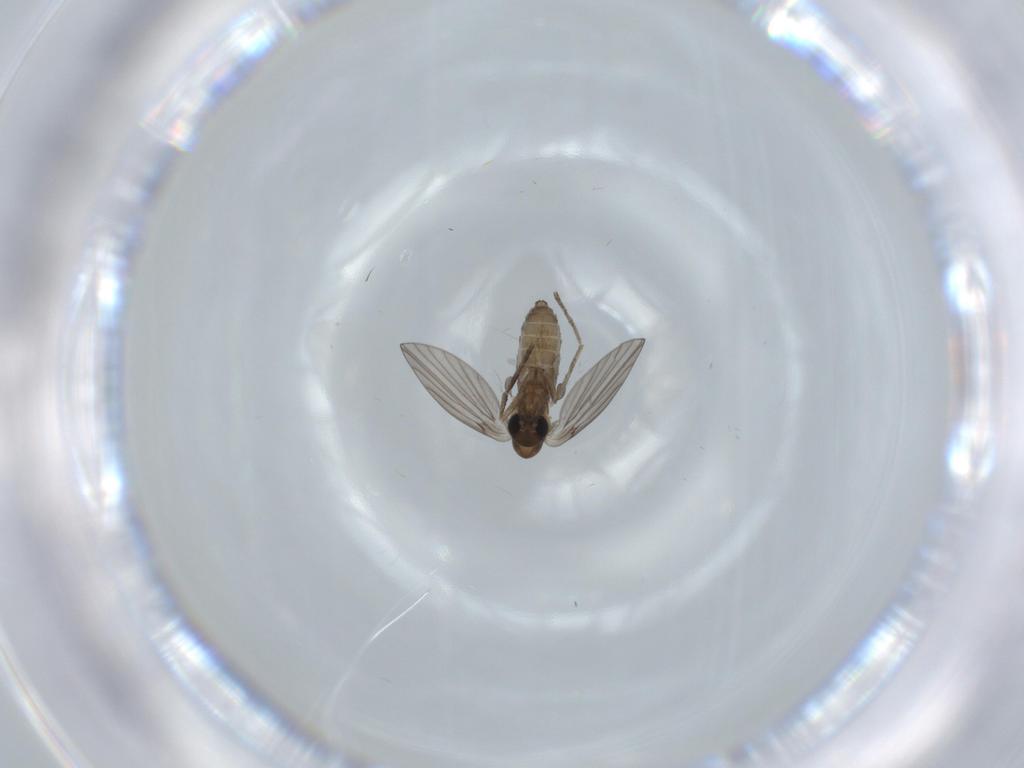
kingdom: Animalia
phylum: Arthropoda
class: Insecta
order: Diptera
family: Psychodidae
